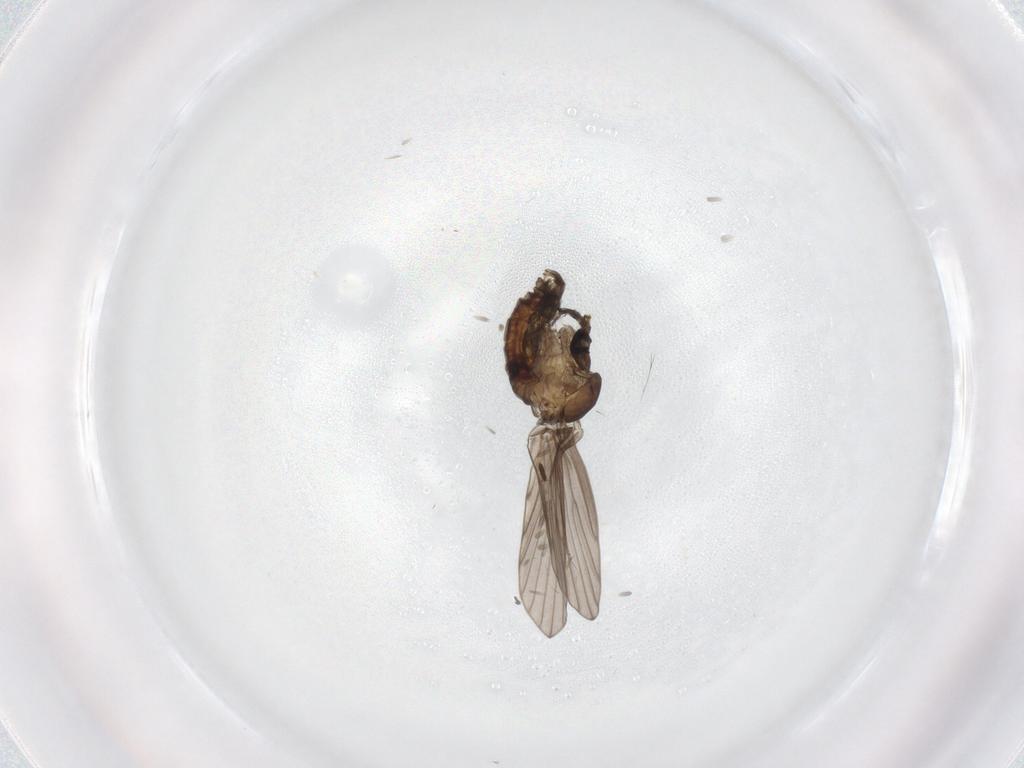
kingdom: Animalia
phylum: Arthropoda
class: Insecta
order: Diptera
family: Psychodidae
